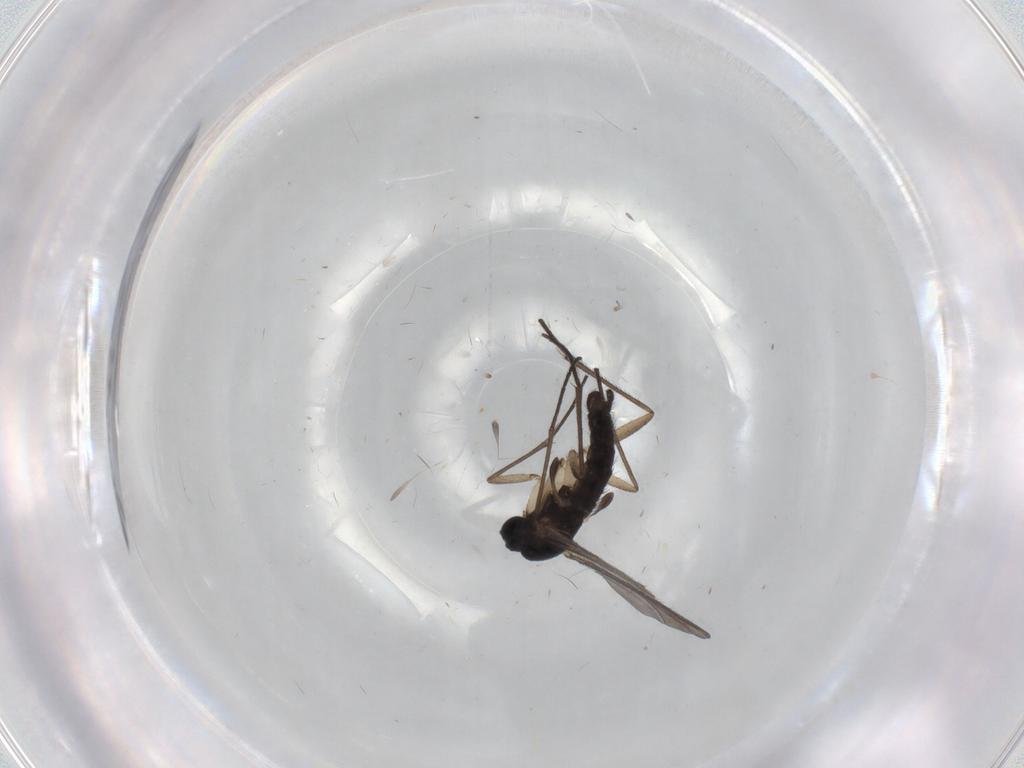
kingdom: Animalia
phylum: Arthropoda
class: Insecta
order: Diptera
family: Sciaridae
